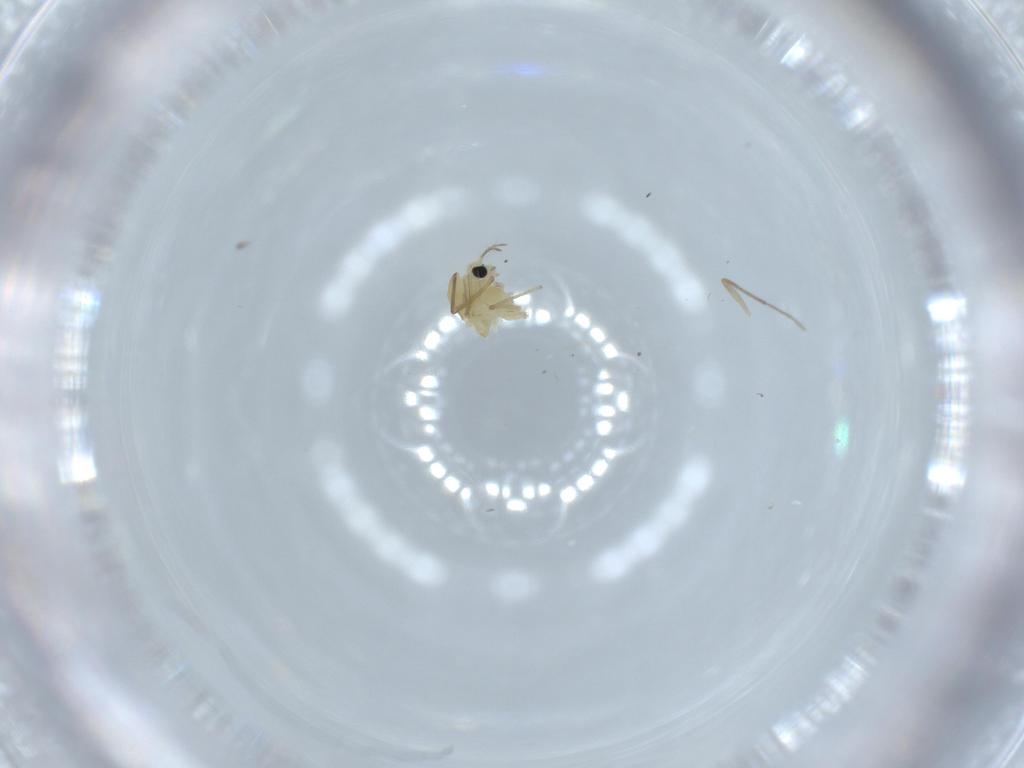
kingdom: Animalia
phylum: Arthropoda
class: Insecta
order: Diptera
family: Chironomidae
